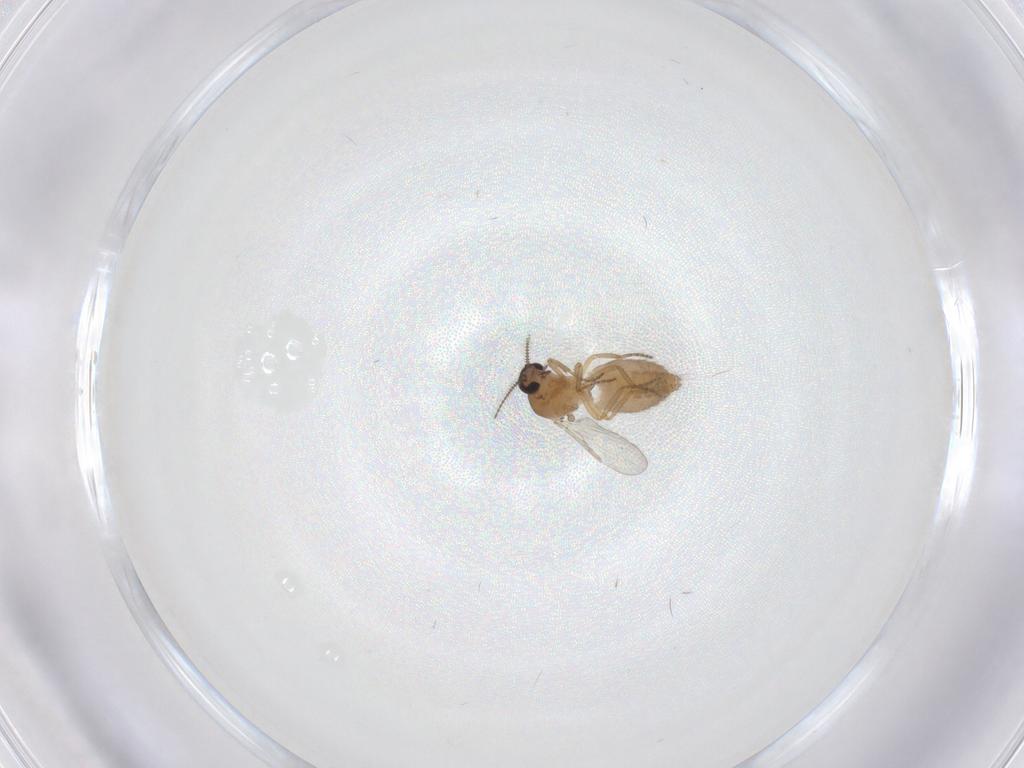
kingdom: Animalia
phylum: Arthropoda
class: Insecta
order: Diptera
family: Ceratopogonidae
